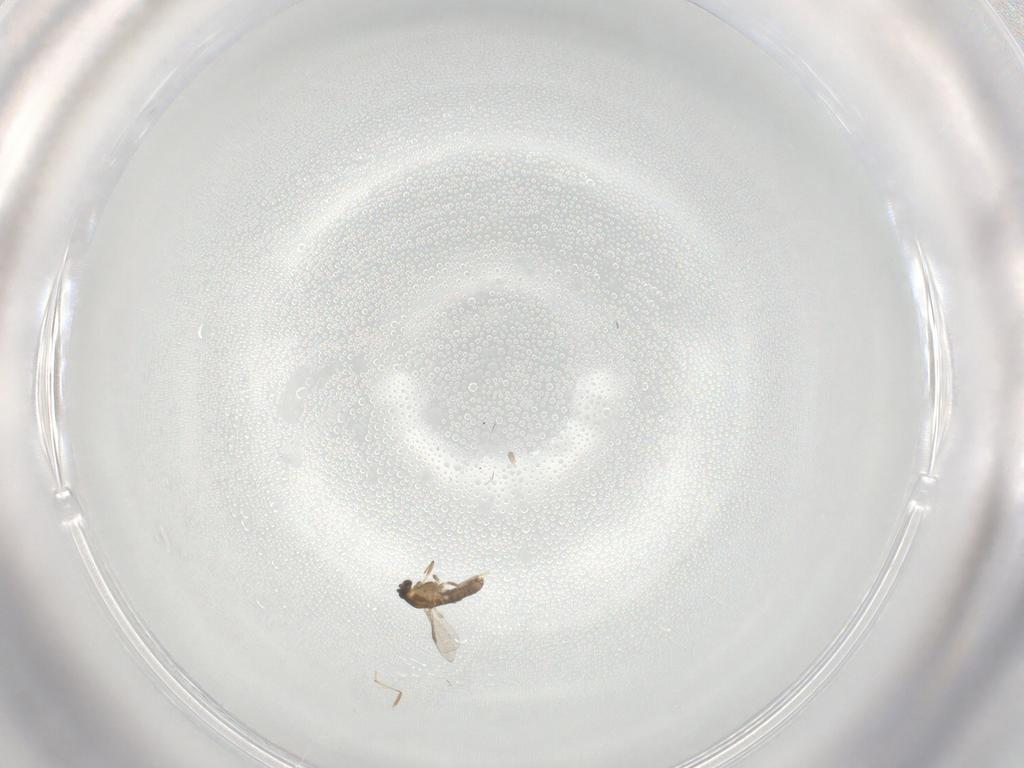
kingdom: Animalia
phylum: Arthropoda
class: Insecta
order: Diptera
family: Chironomidae
